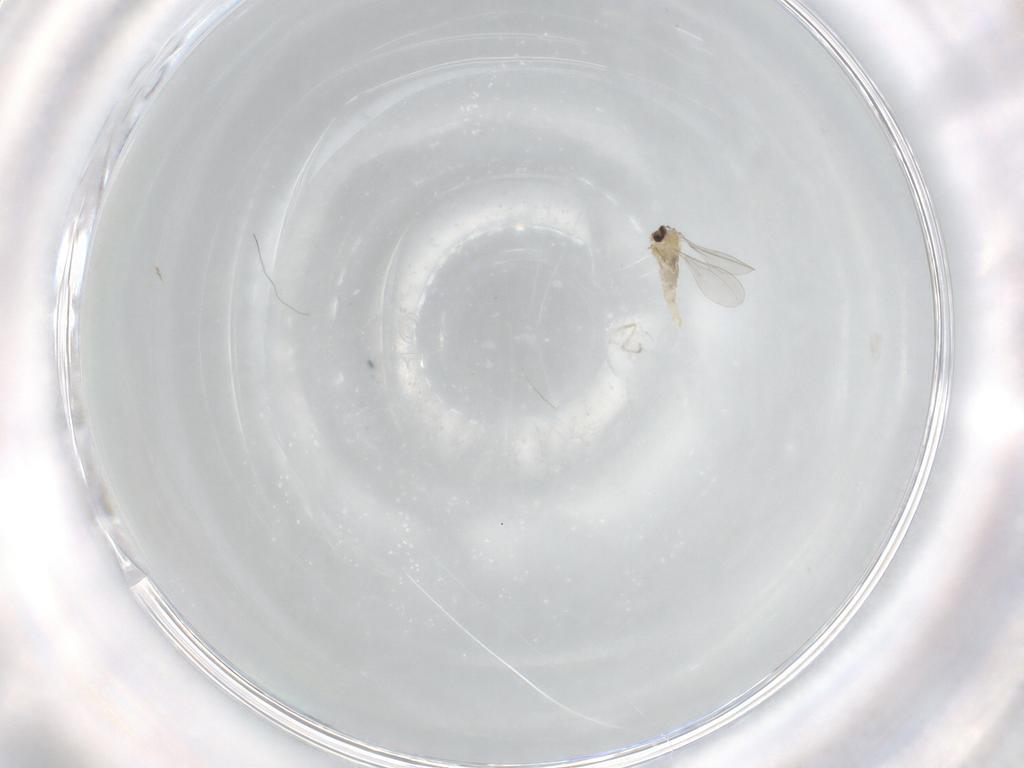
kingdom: Animalia
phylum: Arthropoda
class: Insecta
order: Diptera
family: Cecidomyiidae
